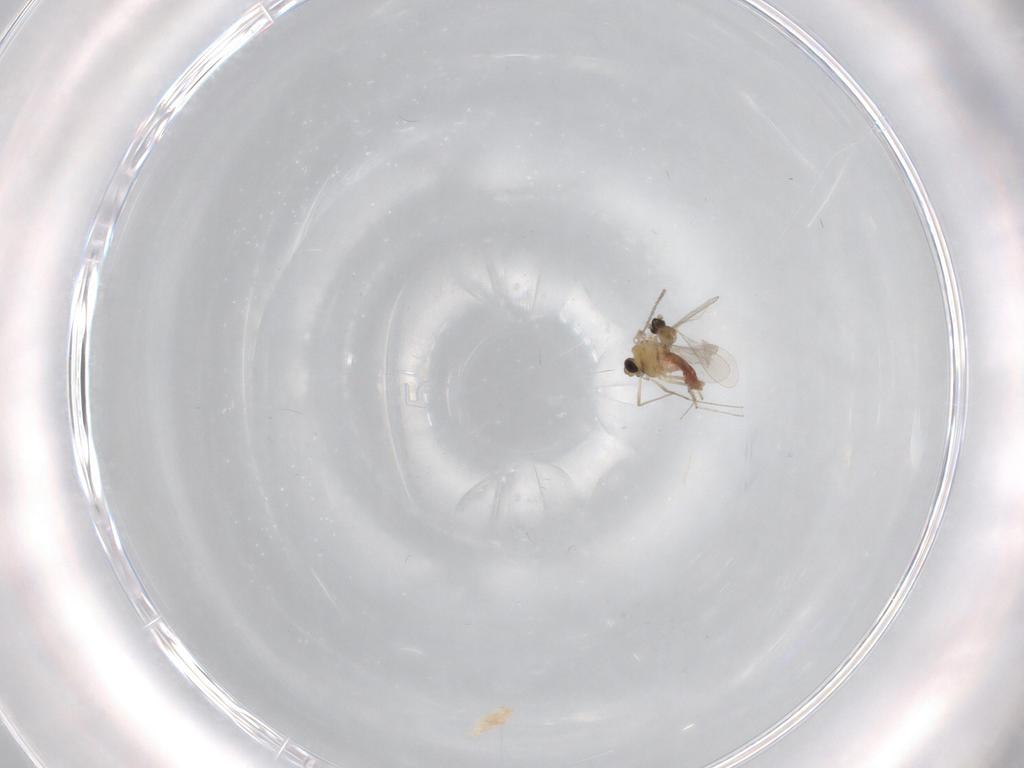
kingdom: Animalia
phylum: Arthropoda
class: Insecta
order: Diptera
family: Cecidomyiidae
